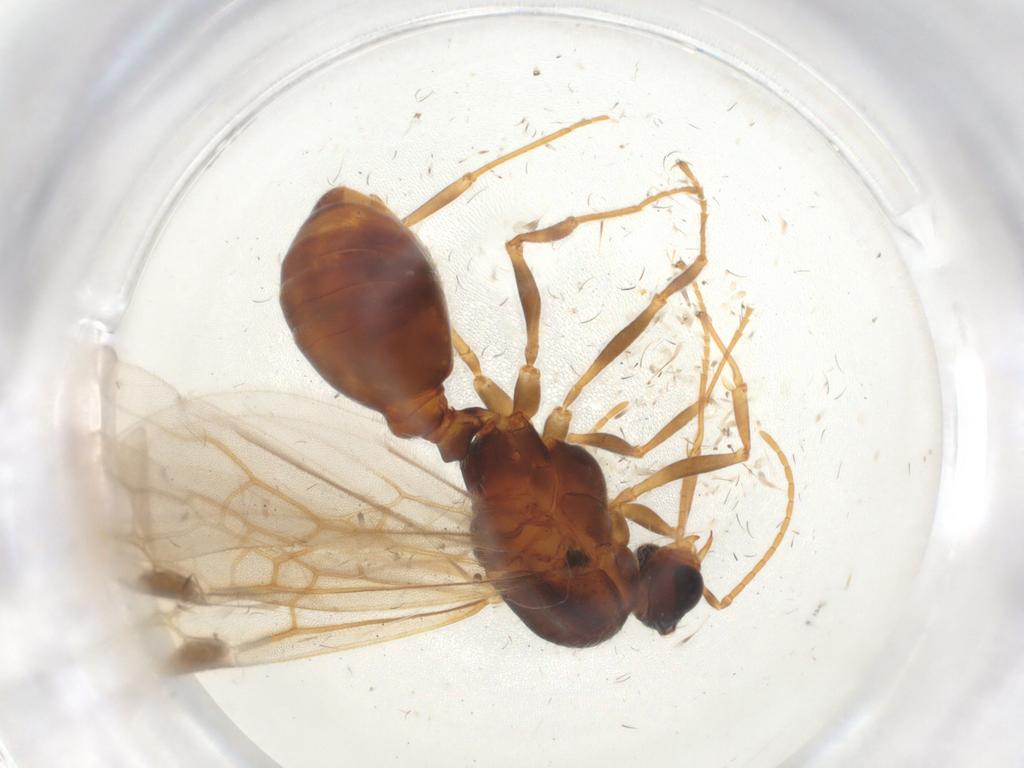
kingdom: Animalia
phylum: Arthropoda
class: Insecta
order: Hymenoptera
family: Formicidae
